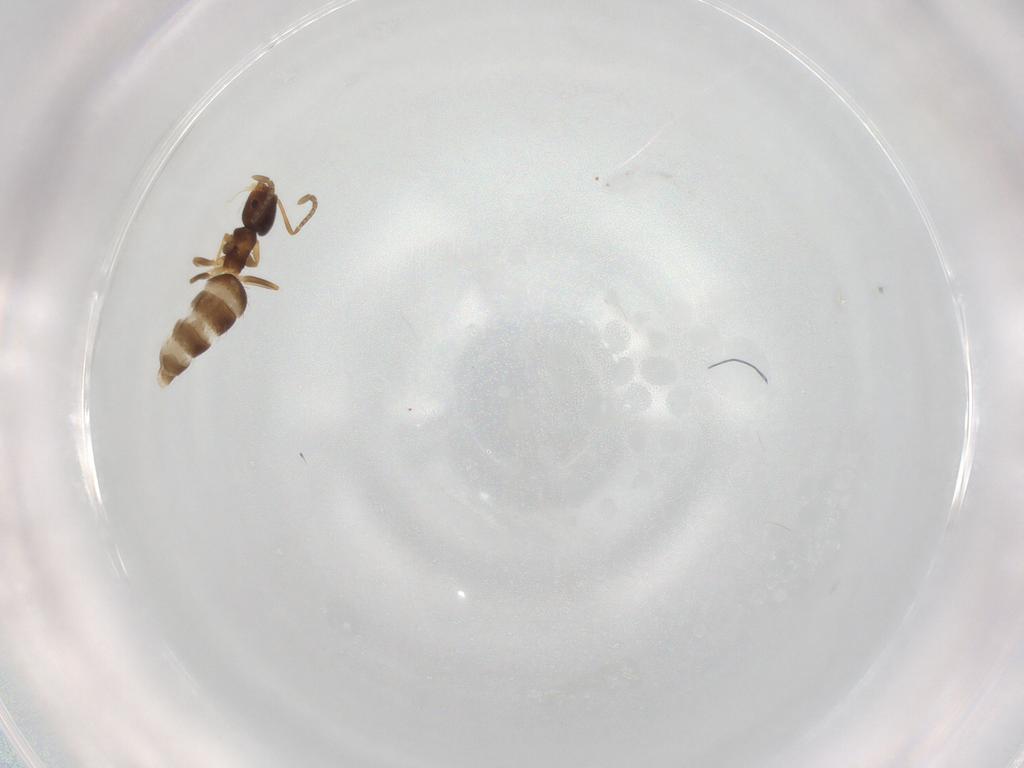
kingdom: Animalia
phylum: Arthropoda
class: Insecta
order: Hymenoptera
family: Formicidae
